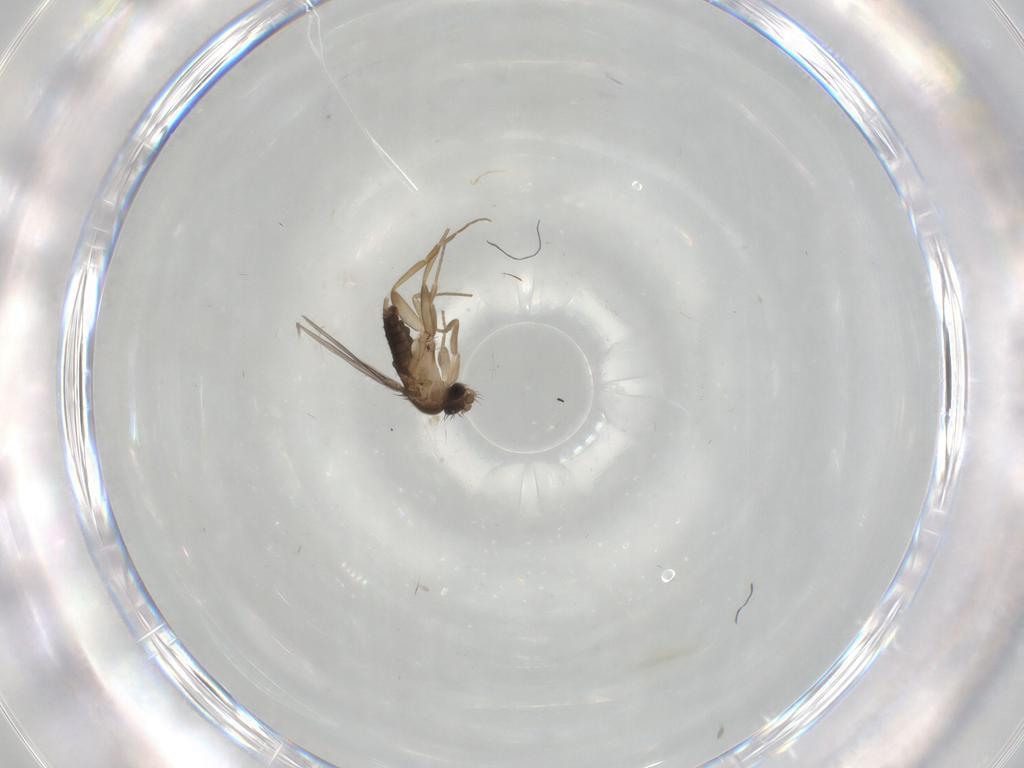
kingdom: Animalia
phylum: Arthropoda
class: Insecta
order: Diptera
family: Phoridae
